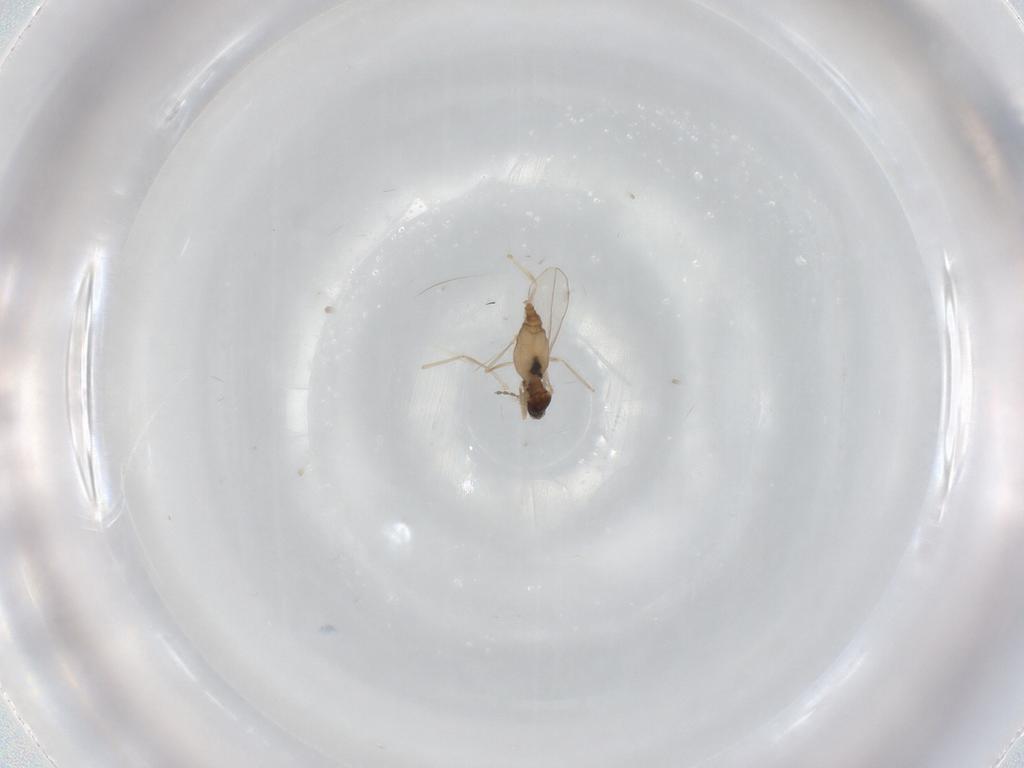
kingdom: Animalia
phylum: Arthropoda
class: Insecta
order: Diptera
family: Cecidomyiidae
